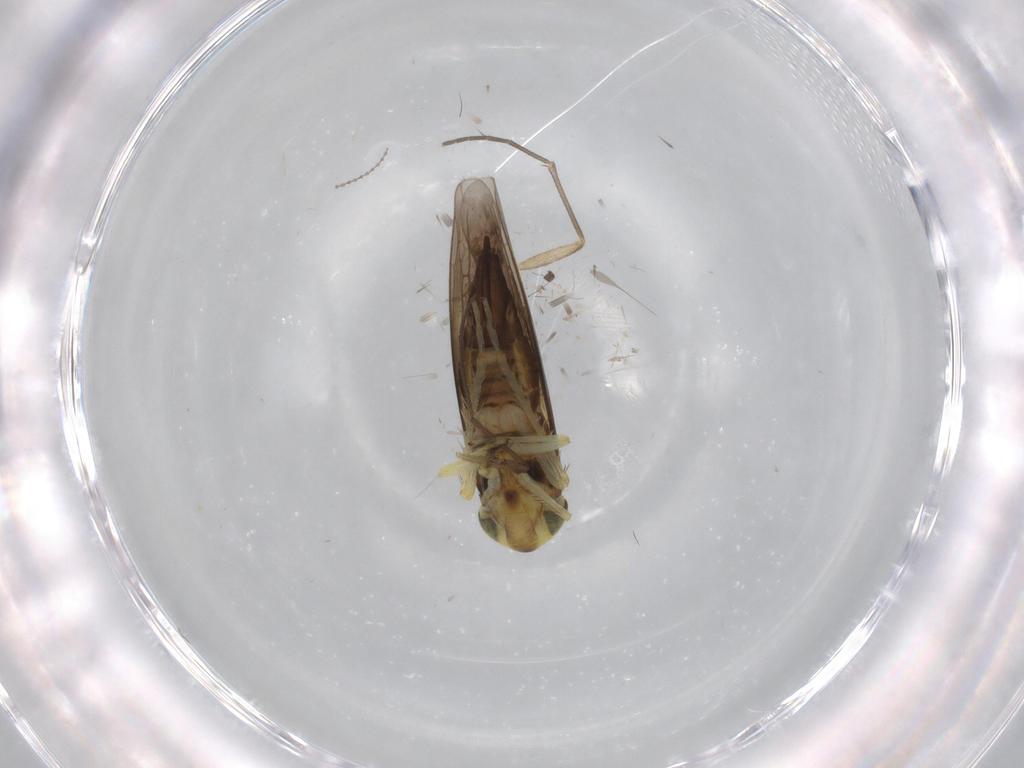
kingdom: Animalia
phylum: Arthropoda
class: Insecta
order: Hemiptera
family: Cicadellidae
